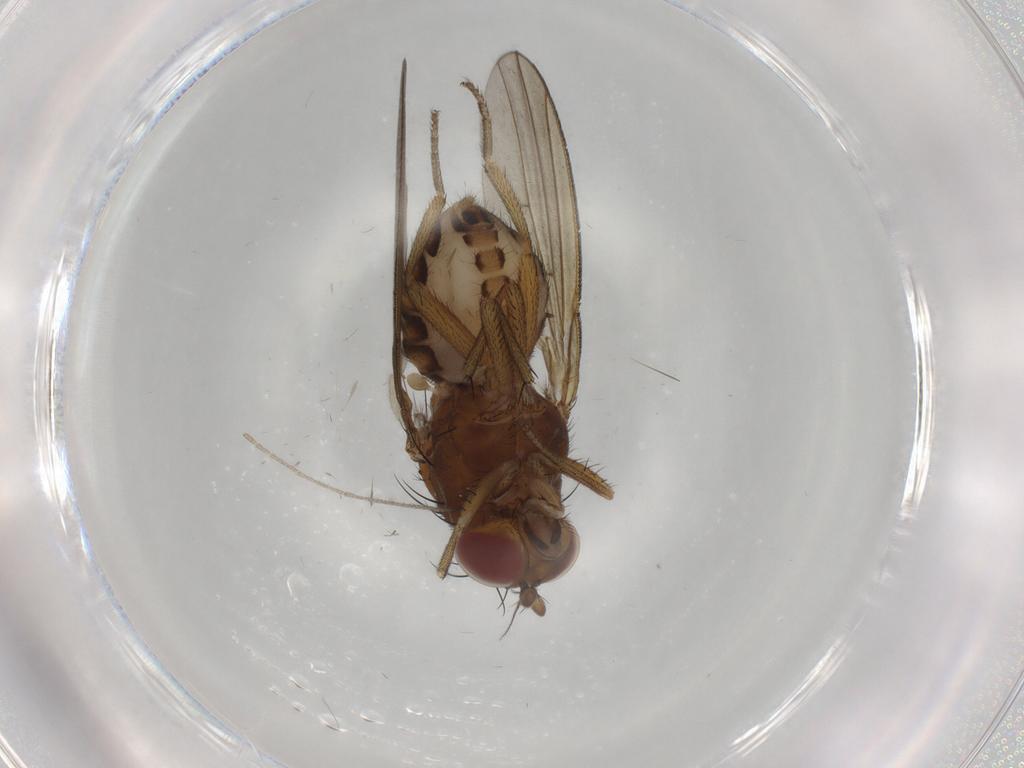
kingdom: Animalia
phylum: Arthropoda
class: Insecta
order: Diptera
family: Chironomidae
